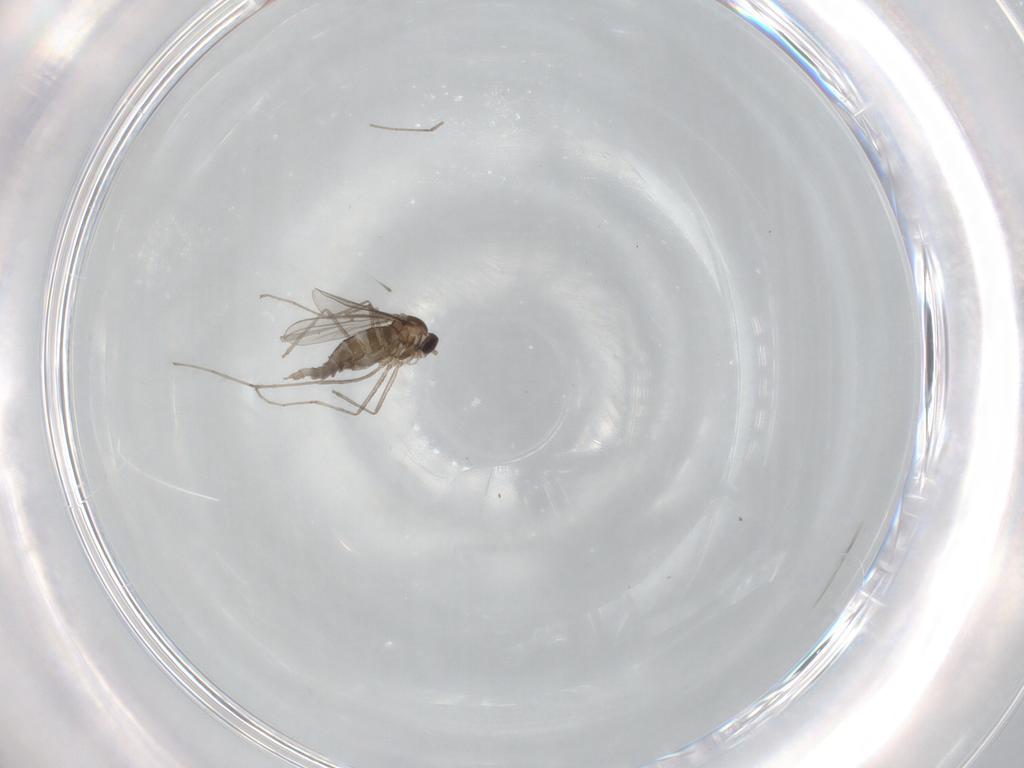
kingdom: Animalia
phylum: Arthropoda
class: Insecta
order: Diptera
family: Cecidomyiidae
